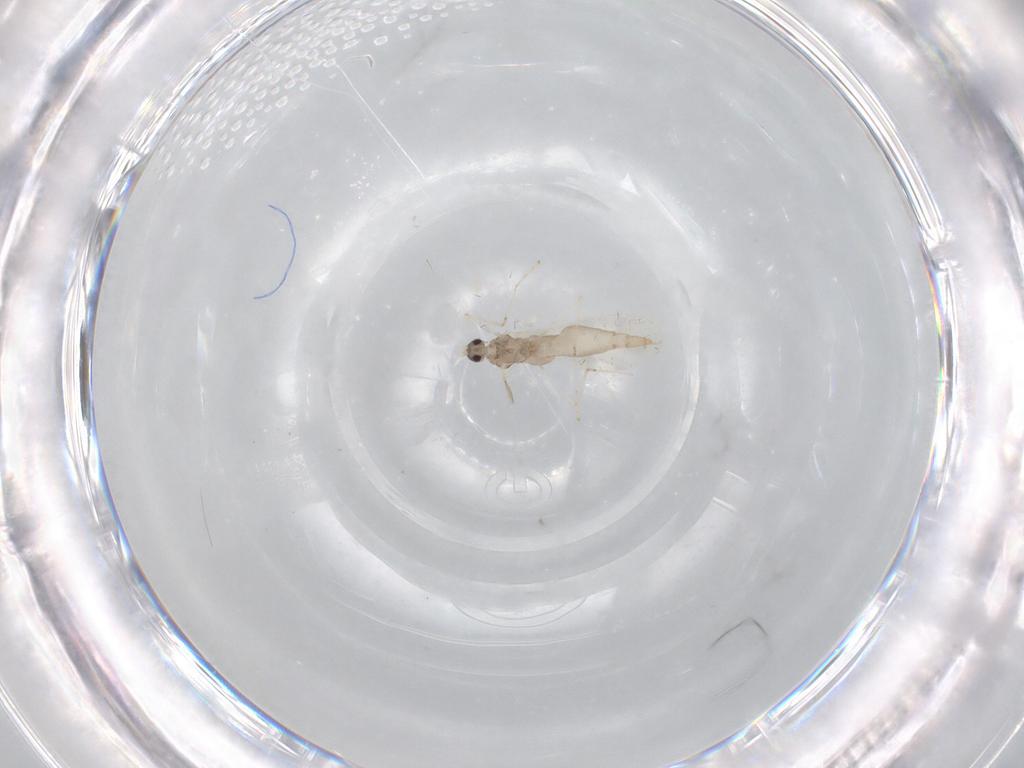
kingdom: Animalia
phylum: Arthropoda
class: Insecta
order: Diptera
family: Cecidomyiidae
